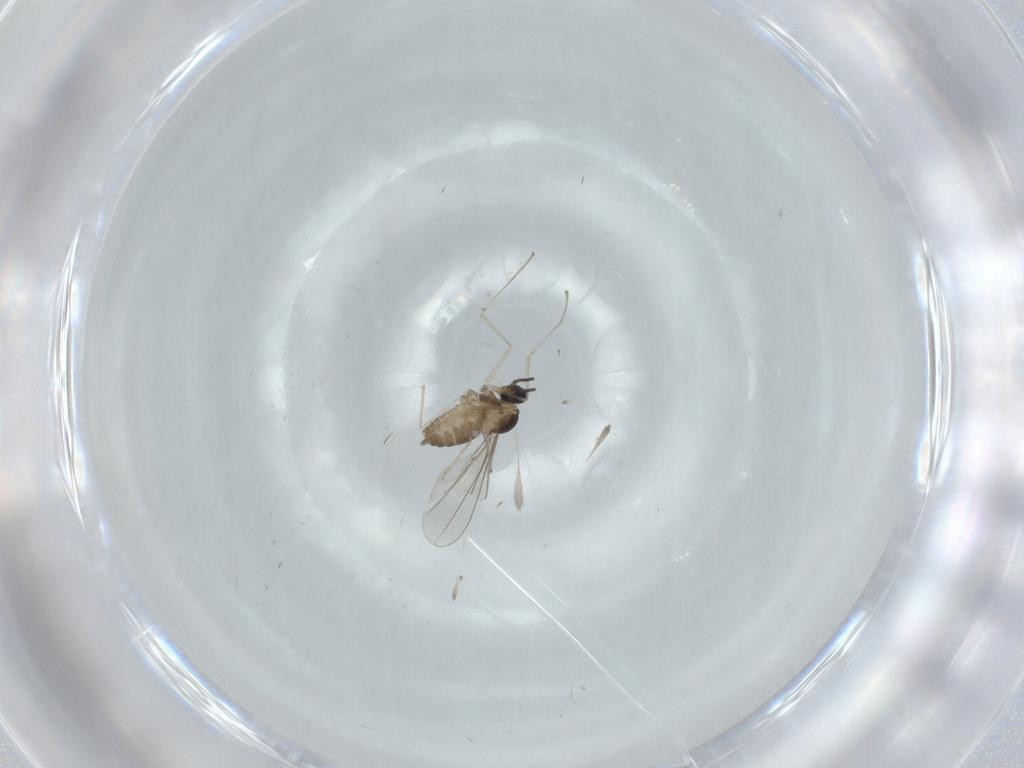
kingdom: Animalia
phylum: Arthropoda
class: Insecta
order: Diptera
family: Cecidomyiidae
